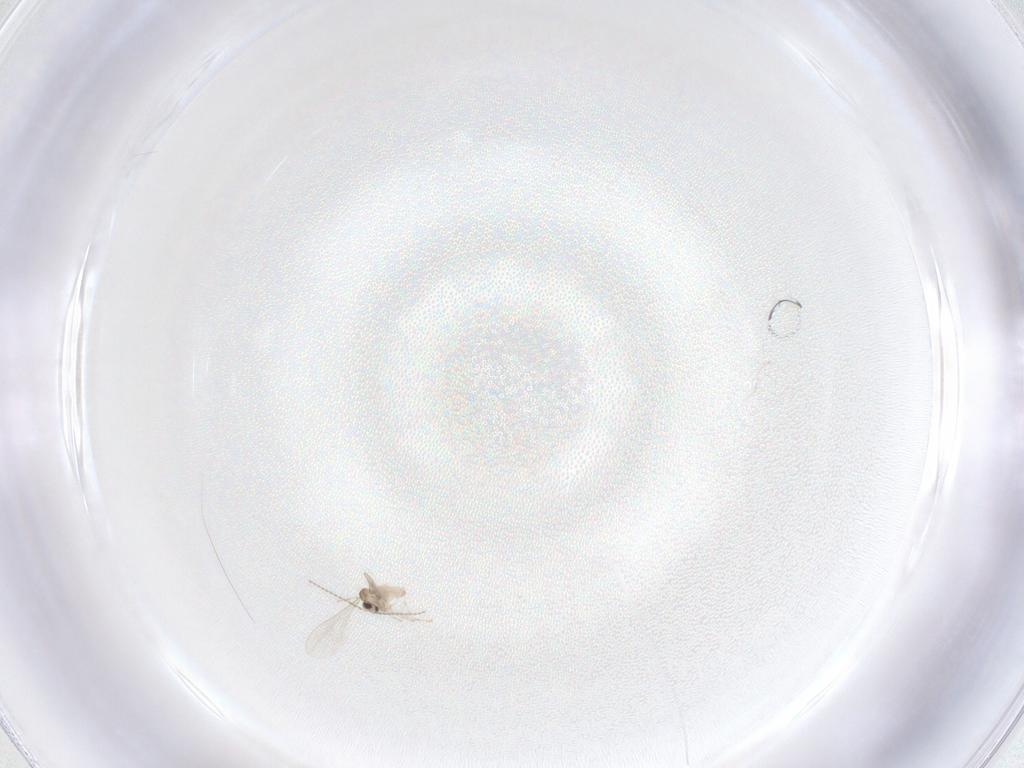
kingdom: Animalia
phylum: Arthropoda
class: Insecta
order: Diptera
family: Cecidomyiidae
